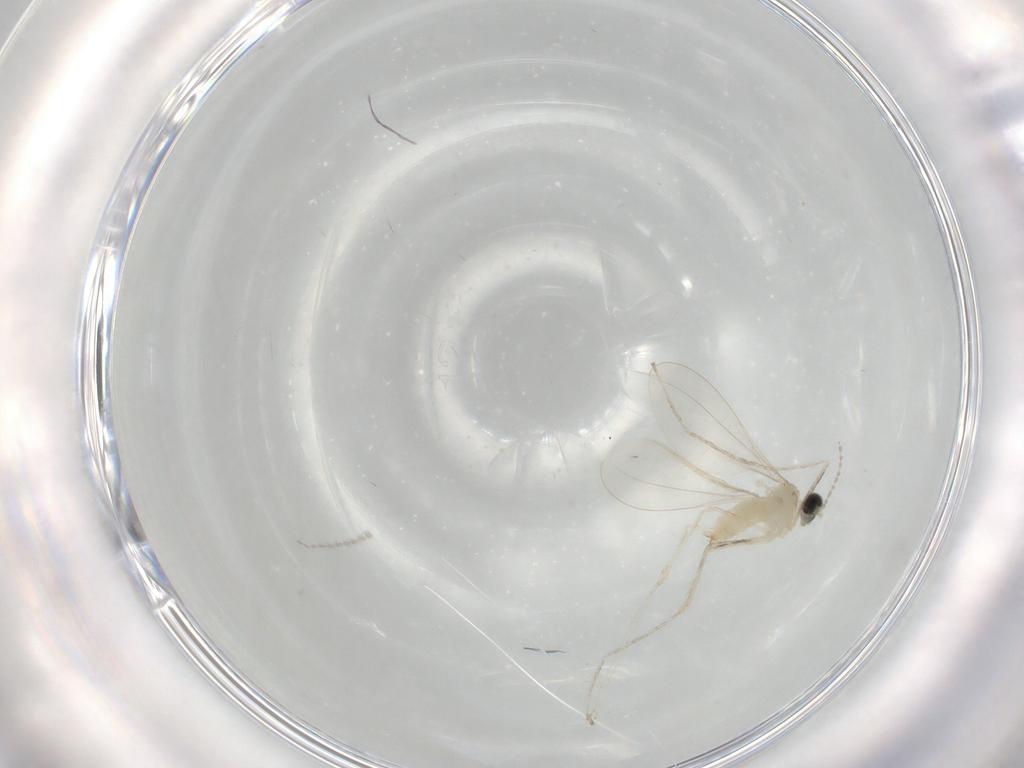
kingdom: Animalia
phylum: Arthropoda
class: Insecta
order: Diptera
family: Cecidomyiidae
